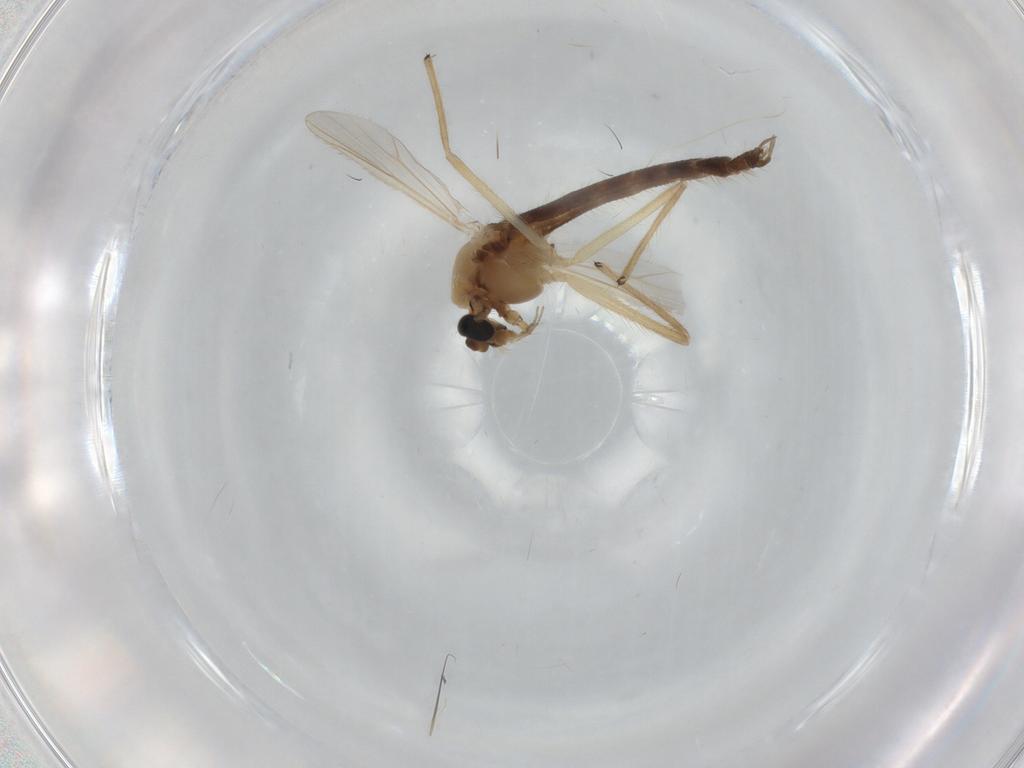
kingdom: Animalia
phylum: Arthropoda
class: Insecta
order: Diptera
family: Chironomidae
